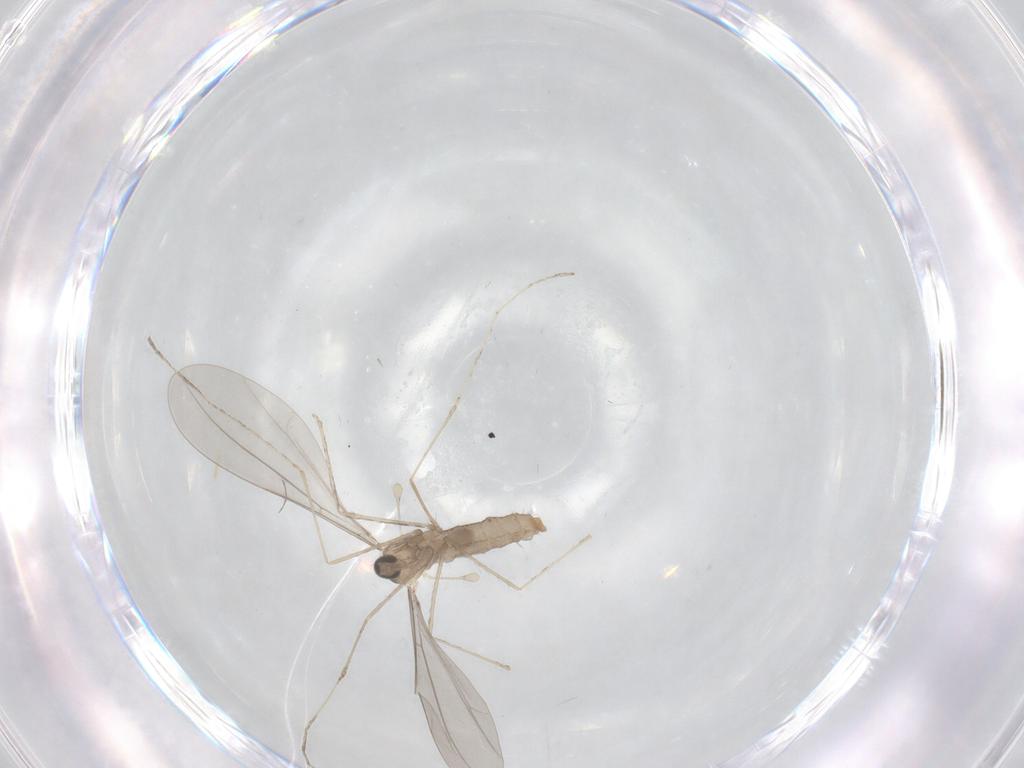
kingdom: Animalia
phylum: Arthropoda
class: Insecta
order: Diptera
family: Cecidomyiidae
